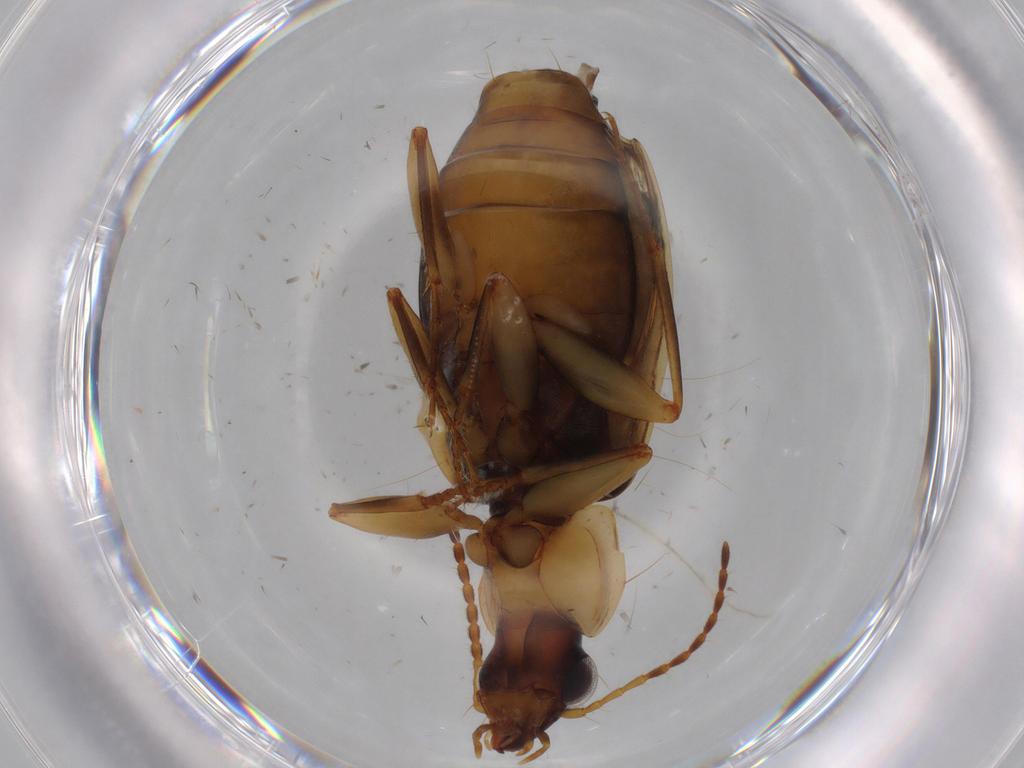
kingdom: Animalia
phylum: Arthropoda
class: Insecta
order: Coleoptera
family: Carabidae
